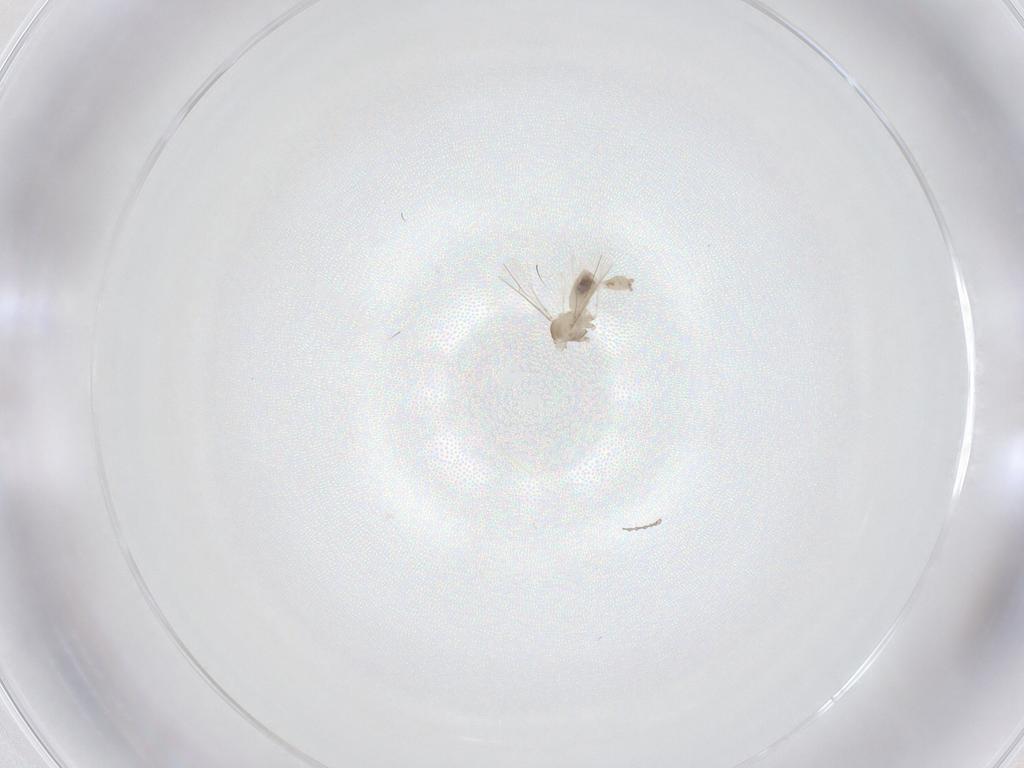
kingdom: Animalia
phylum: Arthropoda
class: Insecta
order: Diptera
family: Cecidomyiidae
